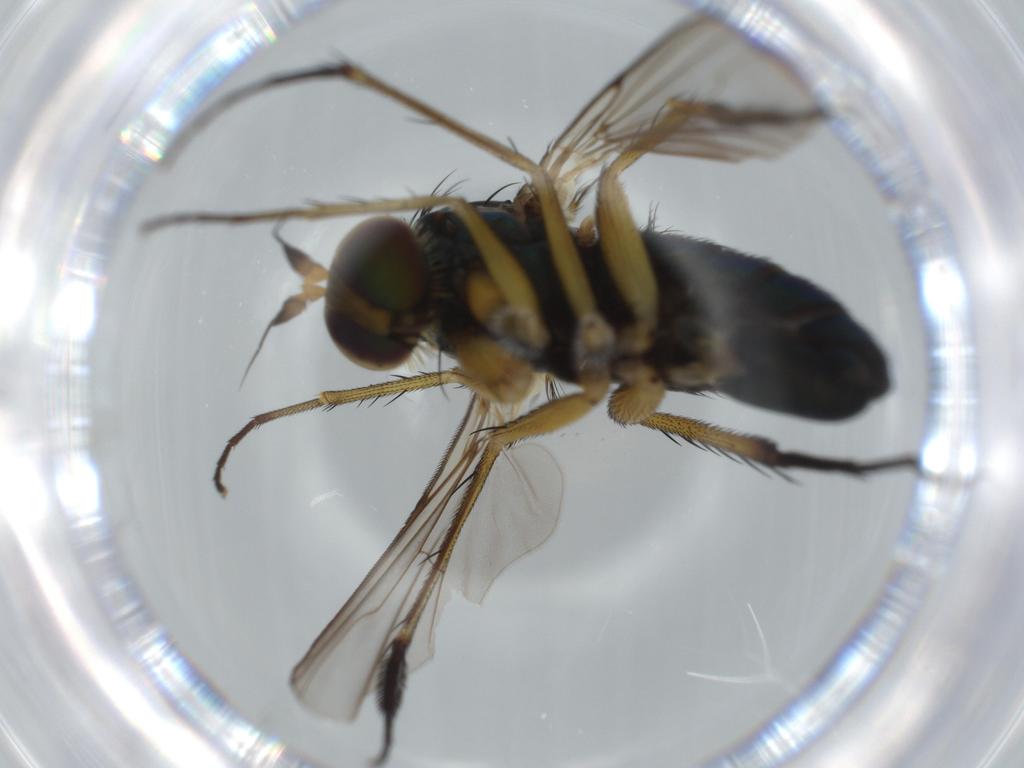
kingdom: Animalia
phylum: Arthropoda
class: Insecta
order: Diptera
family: Dolichopodidae
